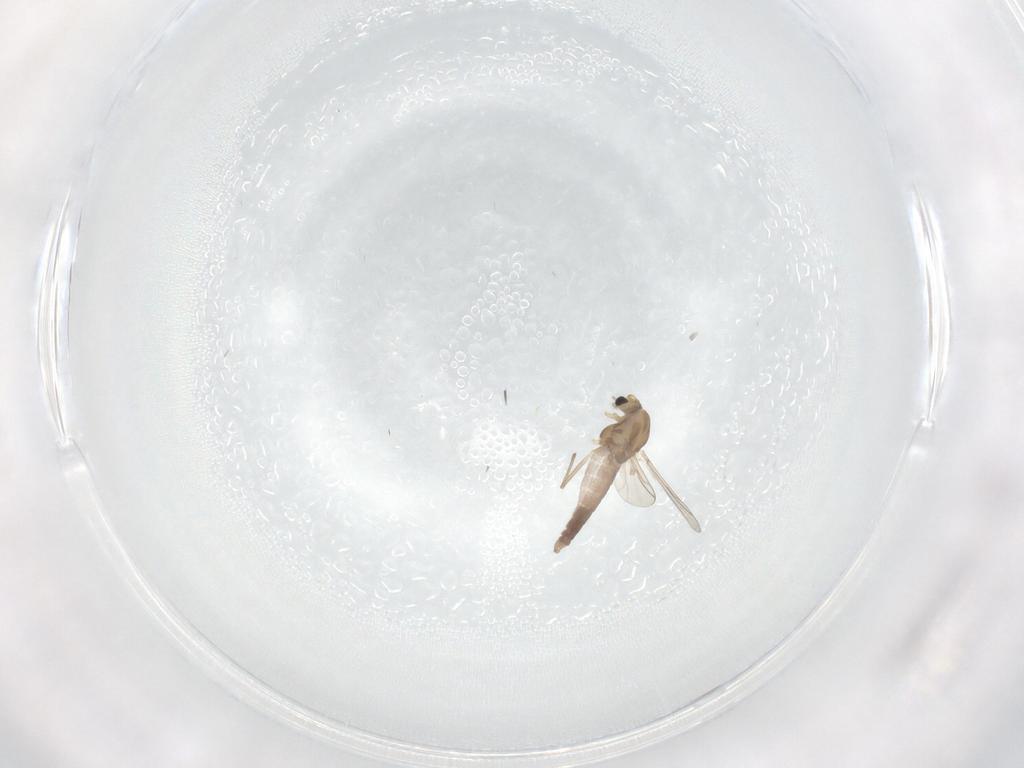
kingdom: Animalia
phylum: Arthropoda
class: Insecta
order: Diptera
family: Chironomidae
